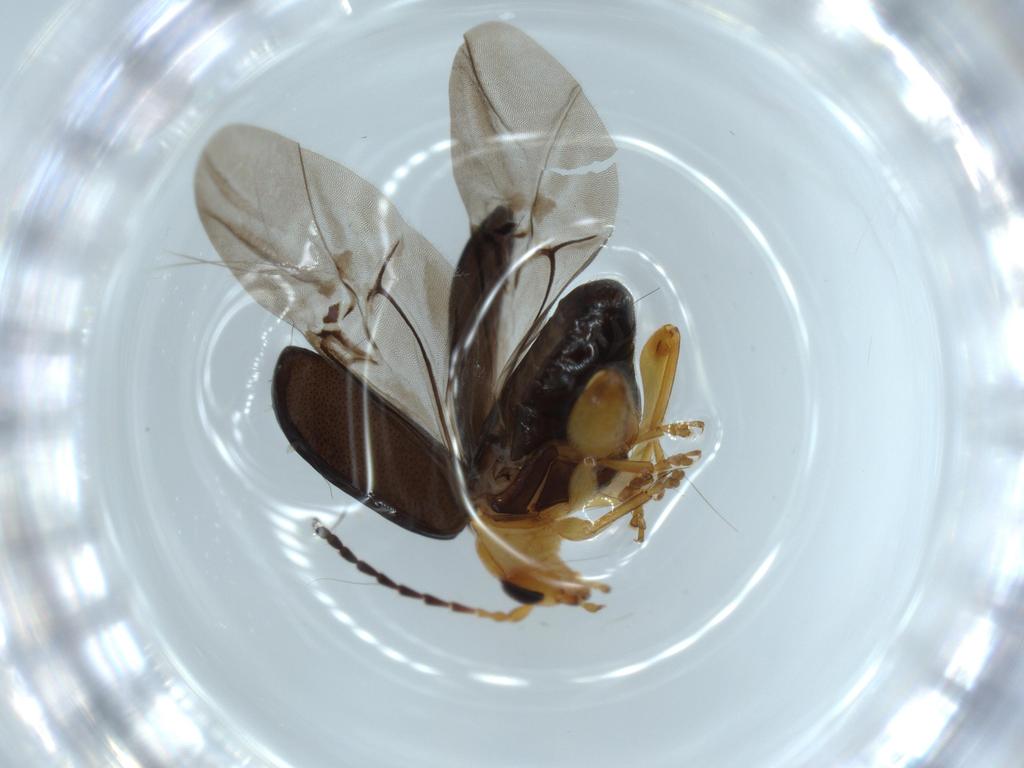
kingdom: Animalia
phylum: Arthropoda
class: Insecta
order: Coleoptera
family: Chrysomelidae
